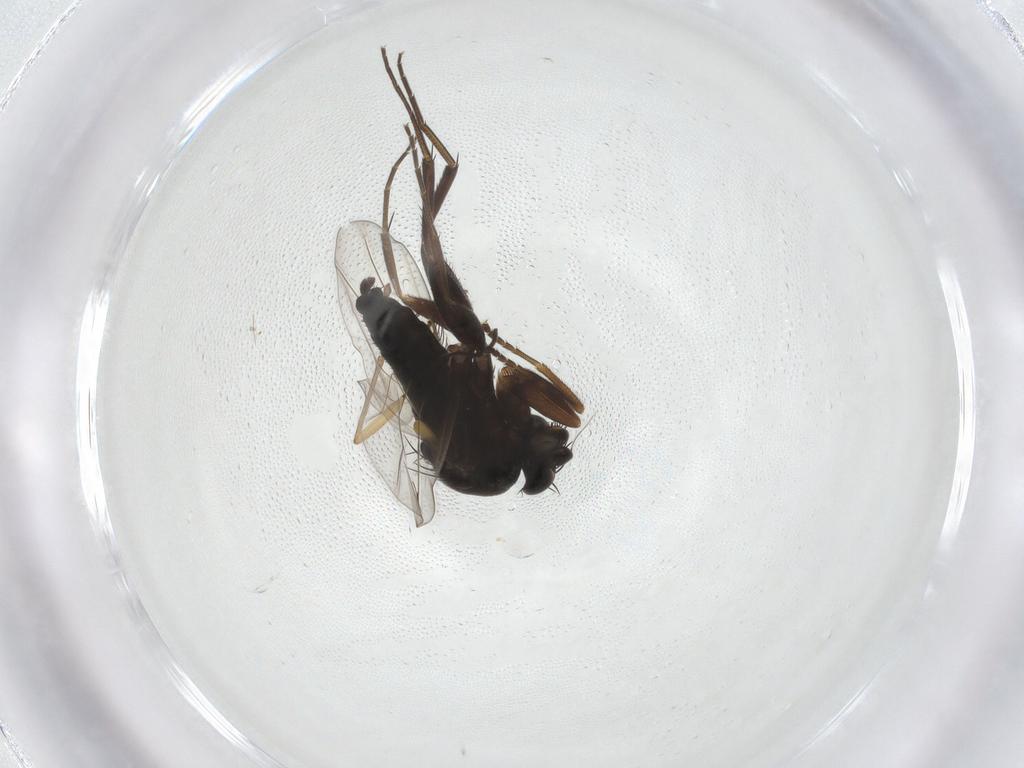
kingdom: Animalia
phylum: Arthropoda
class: Insecta
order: Diptera
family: Phoridae
